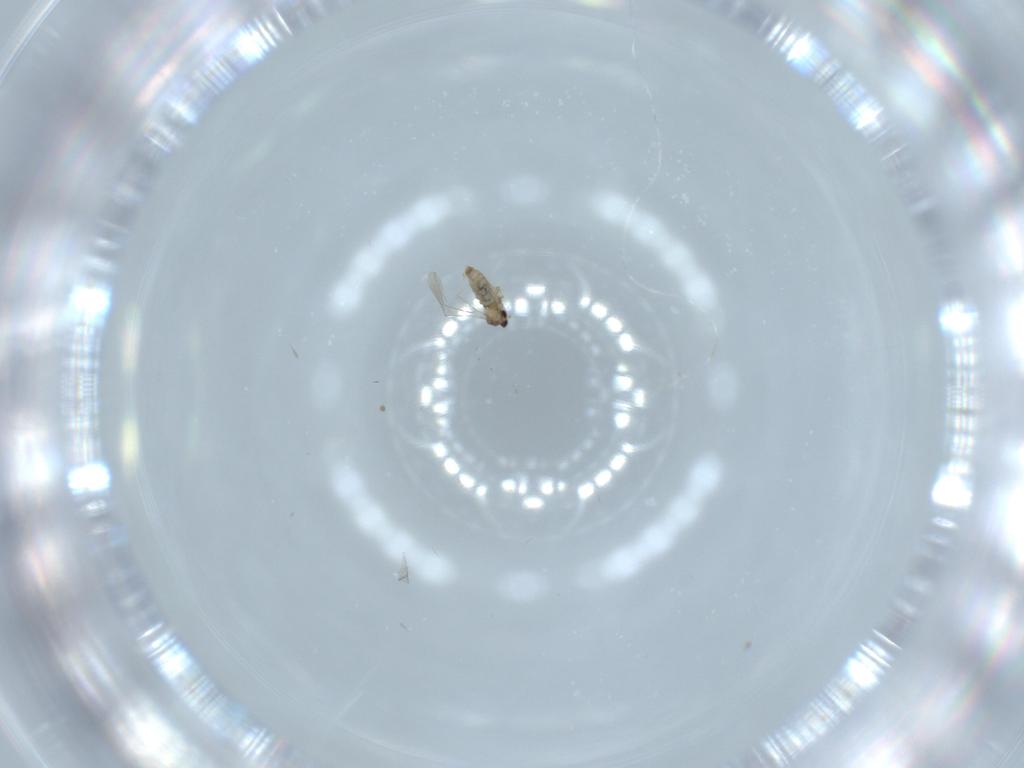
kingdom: Animalia
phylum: Arthropoda
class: Insecta
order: Diptera
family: Cecidomyiidae
